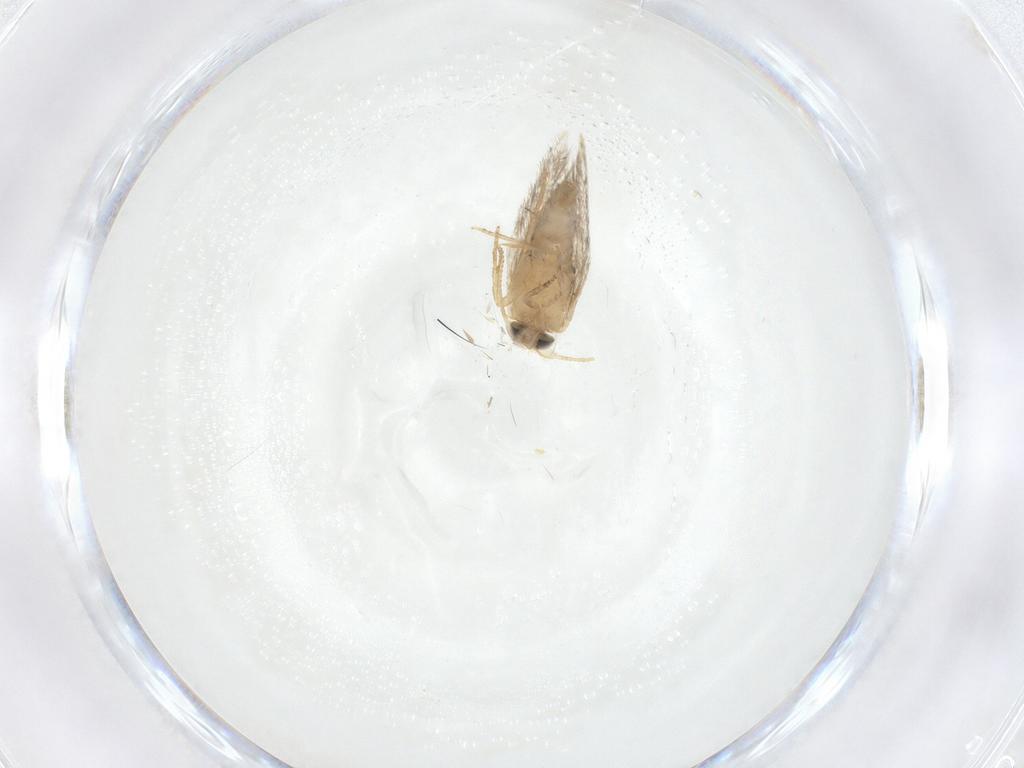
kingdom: Animalia
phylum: Arthropoda
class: Insecta
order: Lepidoptera
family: Nepticulidae
